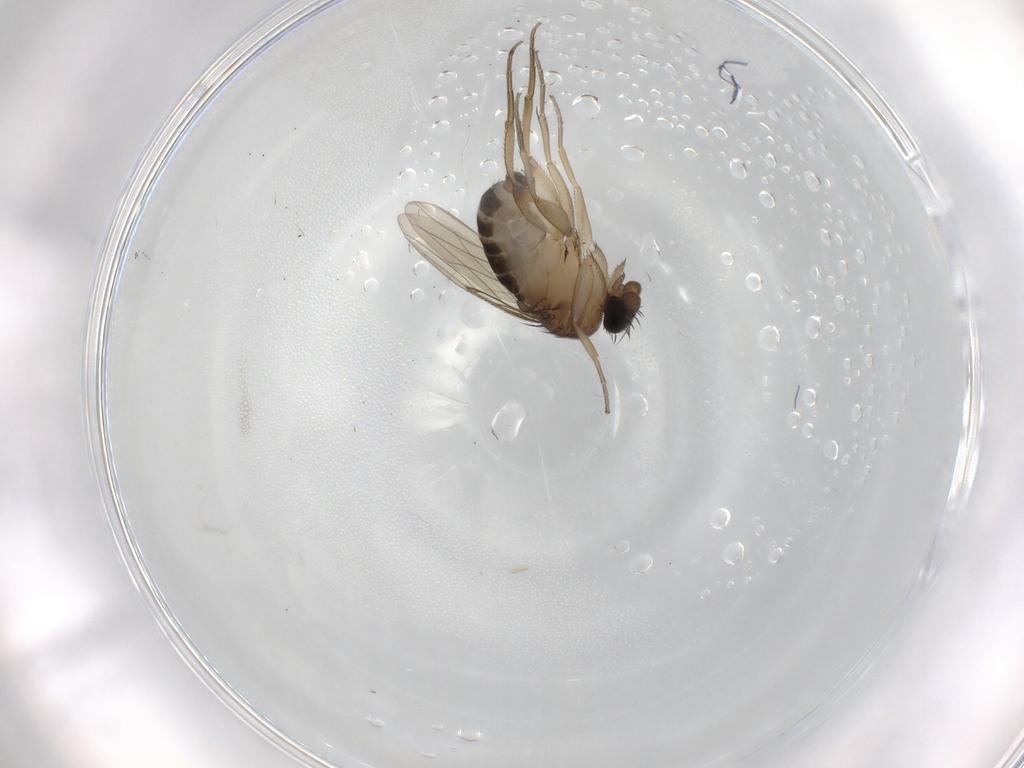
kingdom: Animalia
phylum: Arthropoda
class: Insecta
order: Diptera
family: Phoridae
